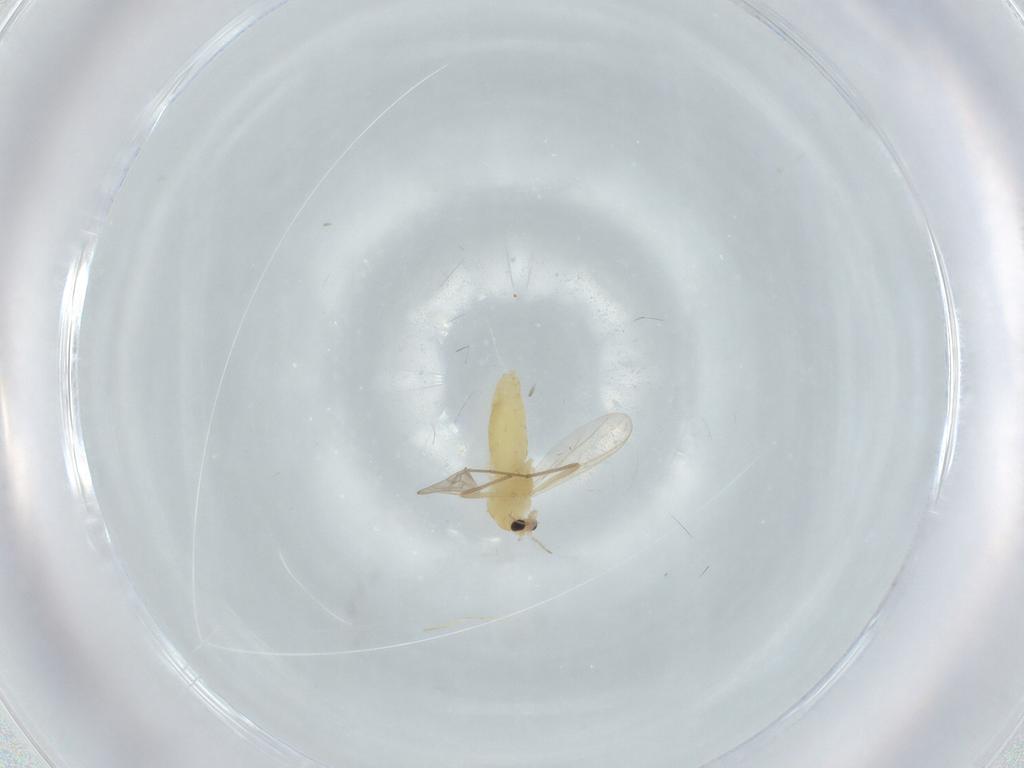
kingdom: Animalia
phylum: Arthropoda
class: Insecta
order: Diptera
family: Chironomidae
